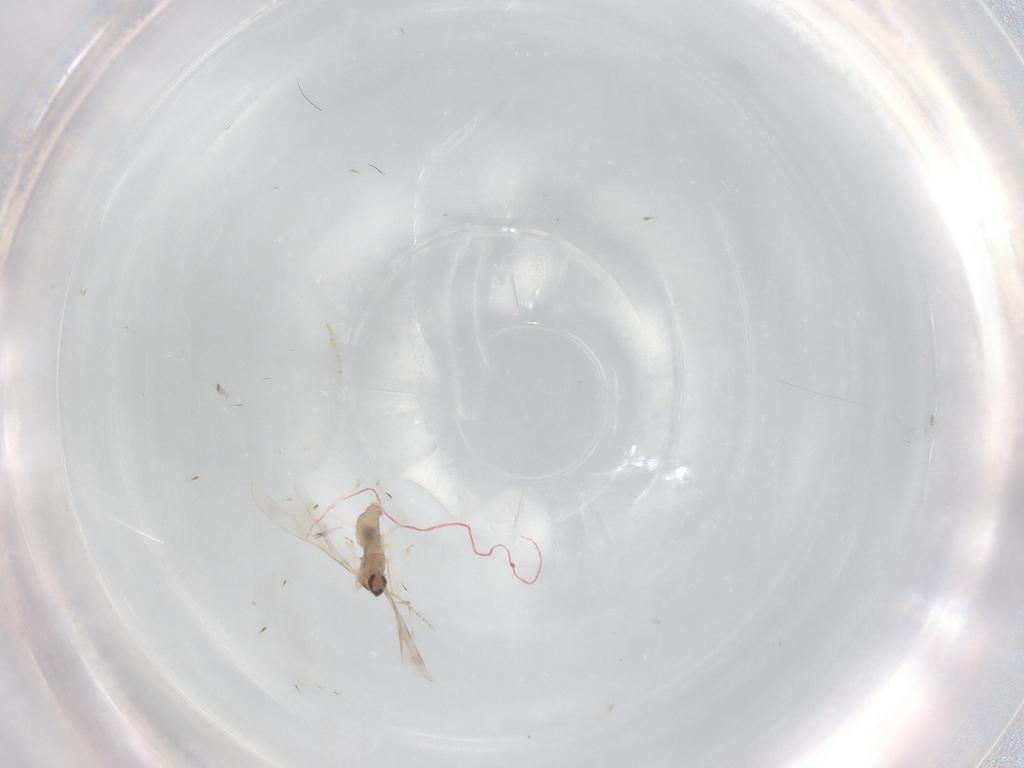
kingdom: Animalia
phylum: Arthropoda
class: Insecta
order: Diptera
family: Cecidomyiidae
